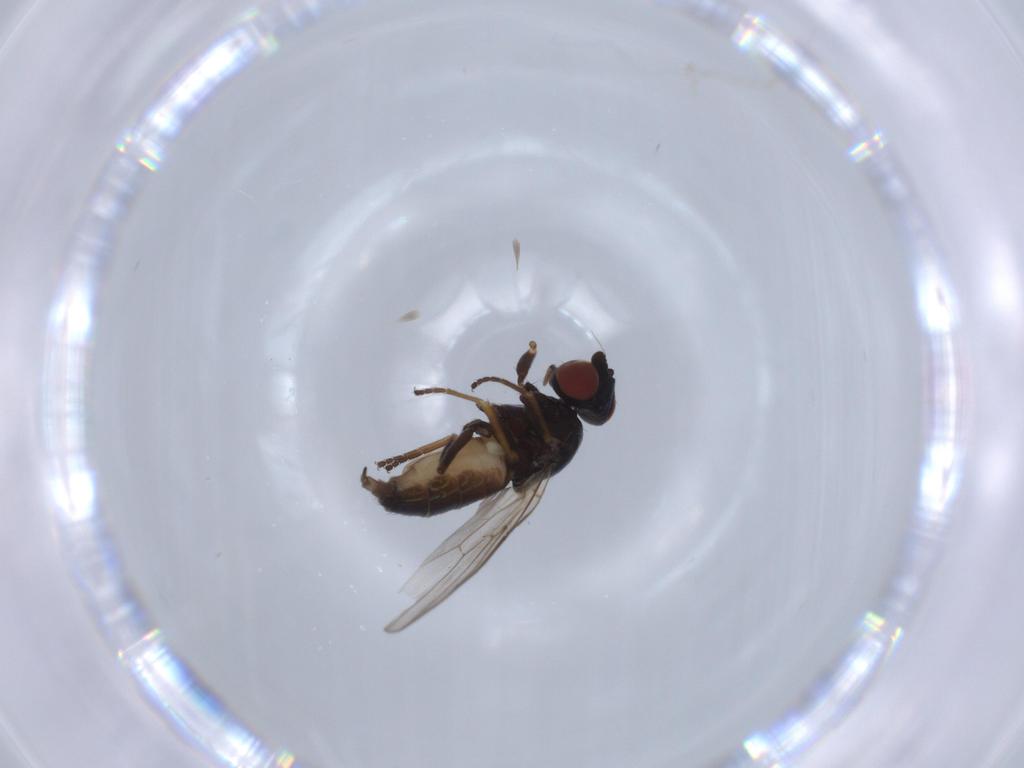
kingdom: Animalia
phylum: Arthropoda
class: Insecta
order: Diptera
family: Chloropidae
